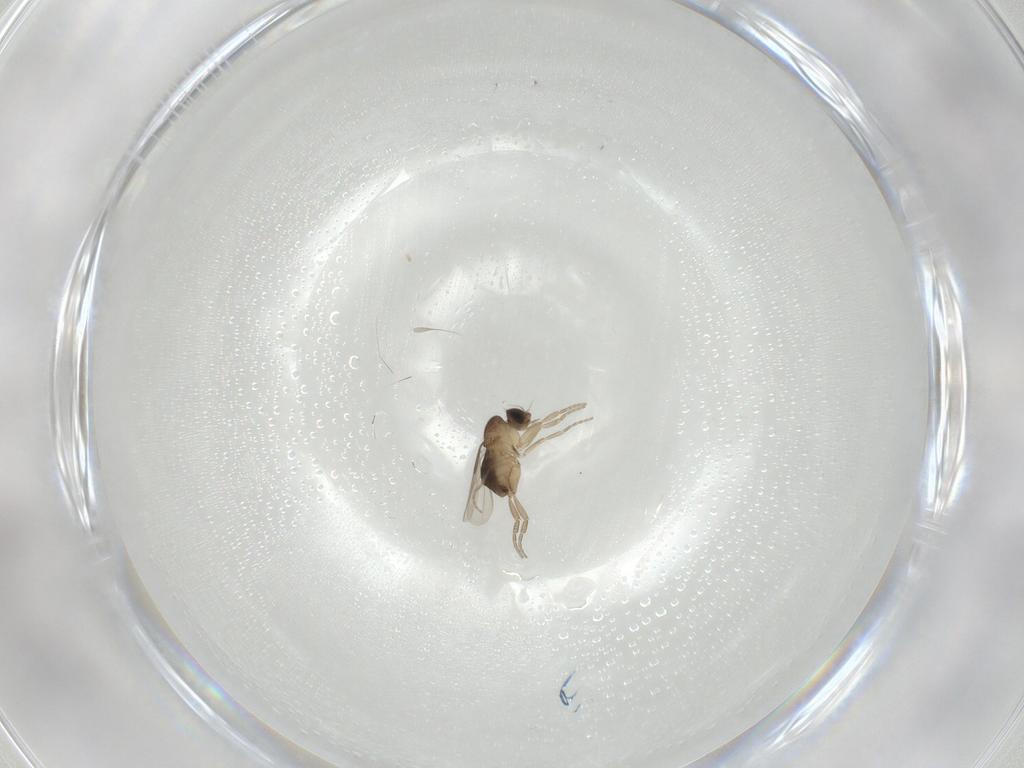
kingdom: Animalia
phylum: Arthropoda
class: Insecta
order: Diptera
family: Phoridae
